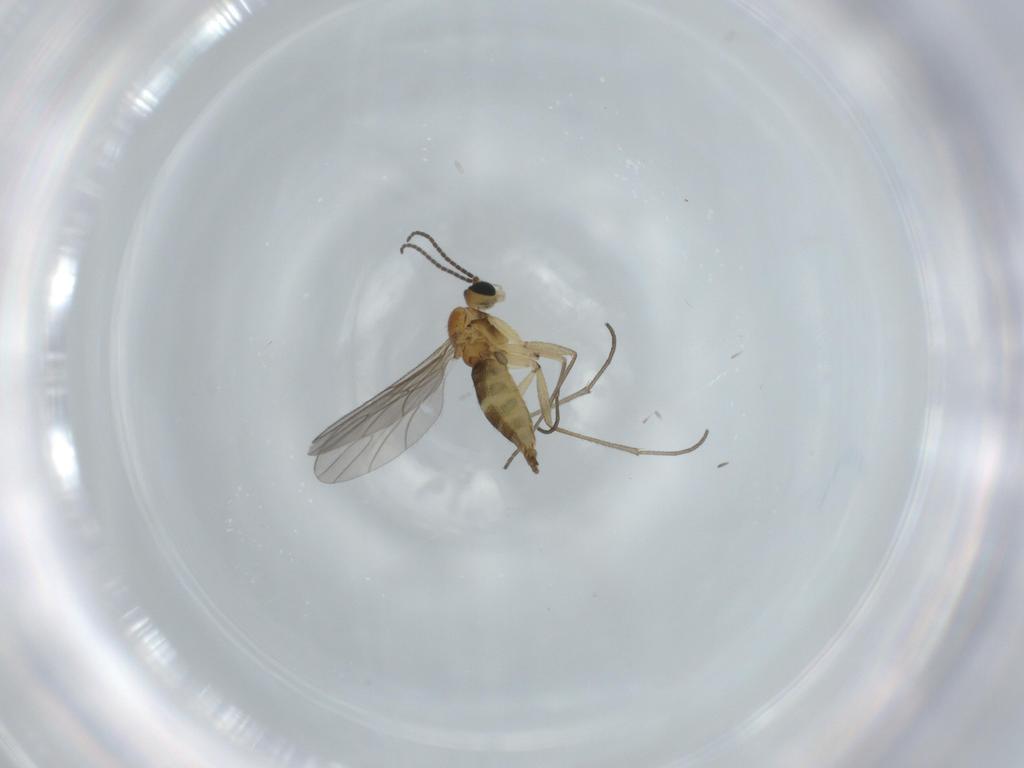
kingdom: Animalia
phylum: Arthropoda
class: Insecta
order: Diptera
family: Sciaridae
